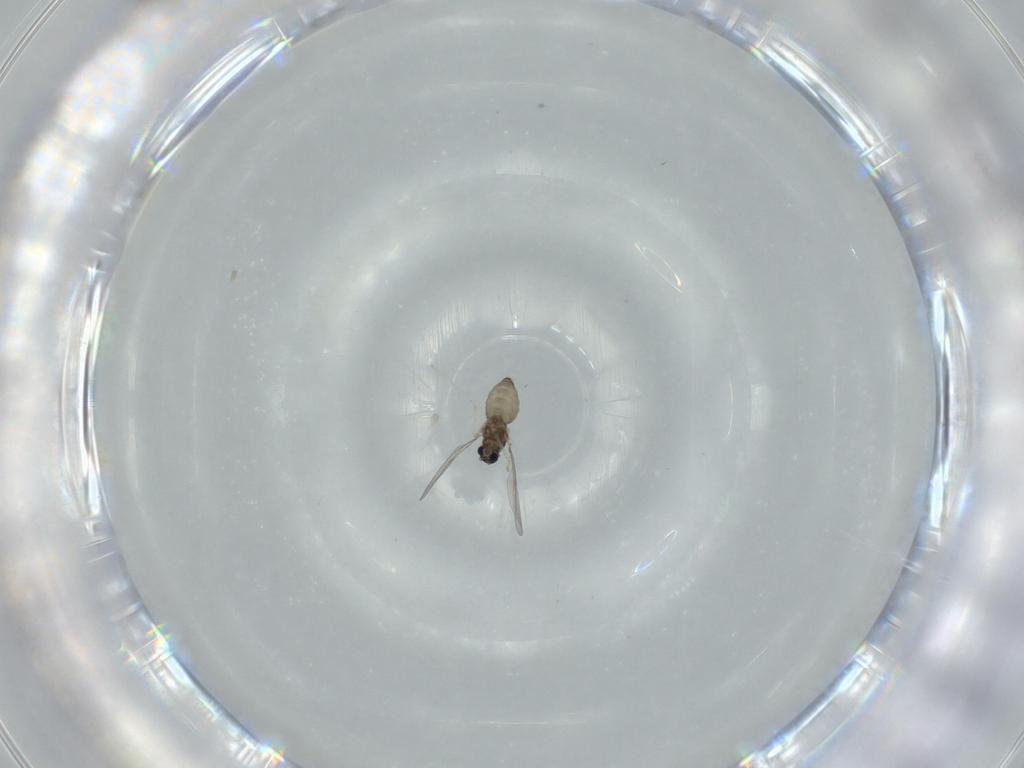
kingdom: Animalia
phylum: Arthropoda
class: Insecta
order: Diptera
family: Cecidomyiidae
